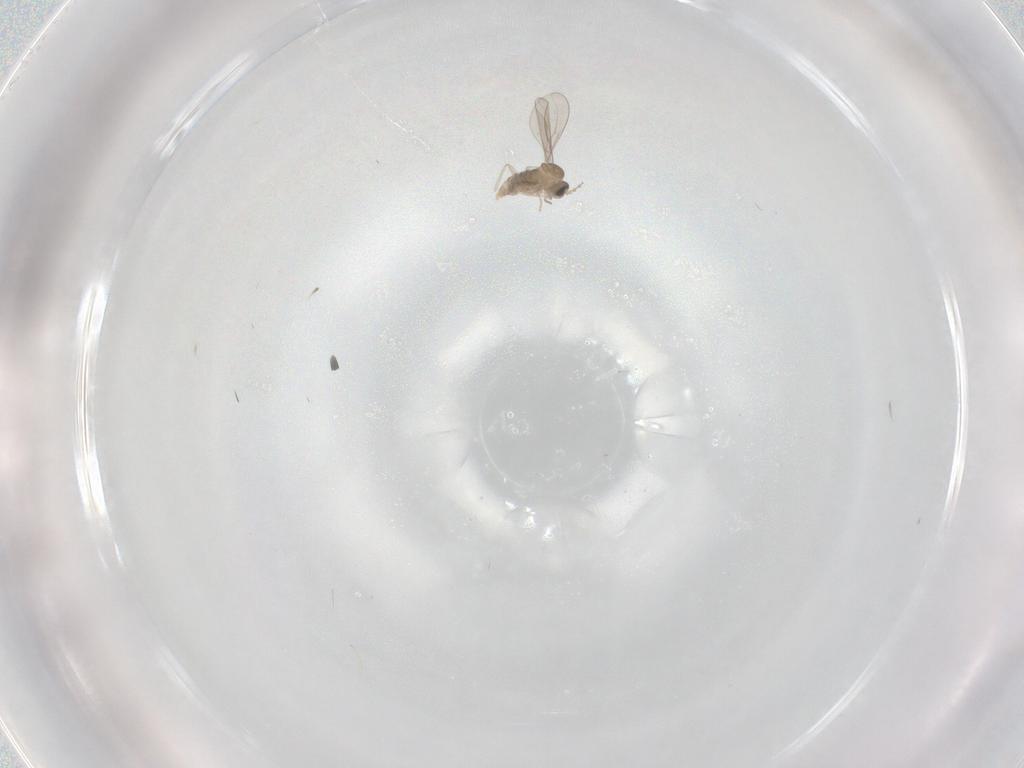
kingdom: Animalia
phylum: Arthropoda
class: Insecta
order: Diptera
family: Cecidomyiidae
